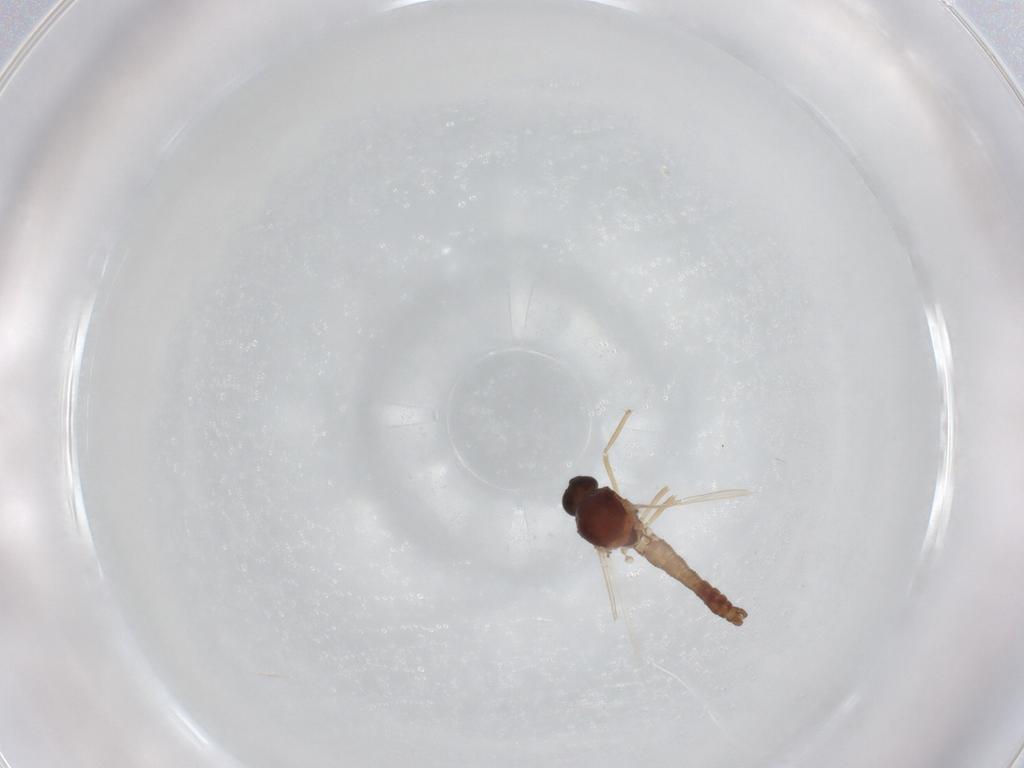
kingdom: Animalia
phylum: Arthropoda
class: Insecta
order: Diptera
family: Ceratopogonidae
